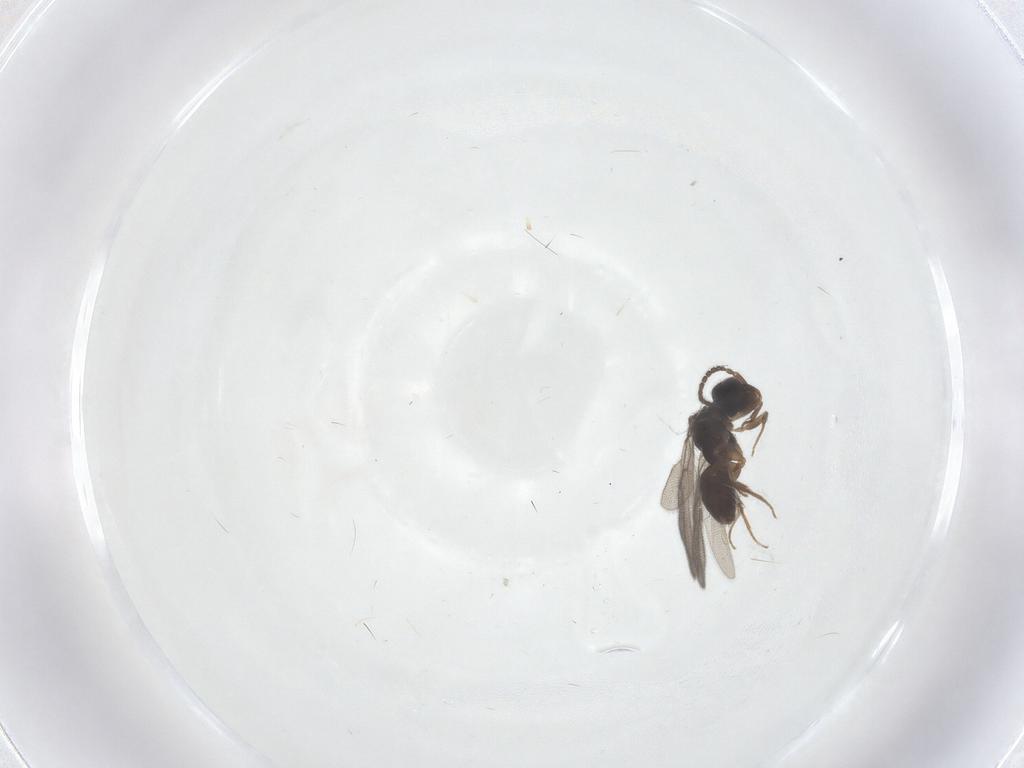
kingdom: Animalia
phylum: Arthropoda
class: Insecta
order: Hymenoptera
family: Bethylidae
